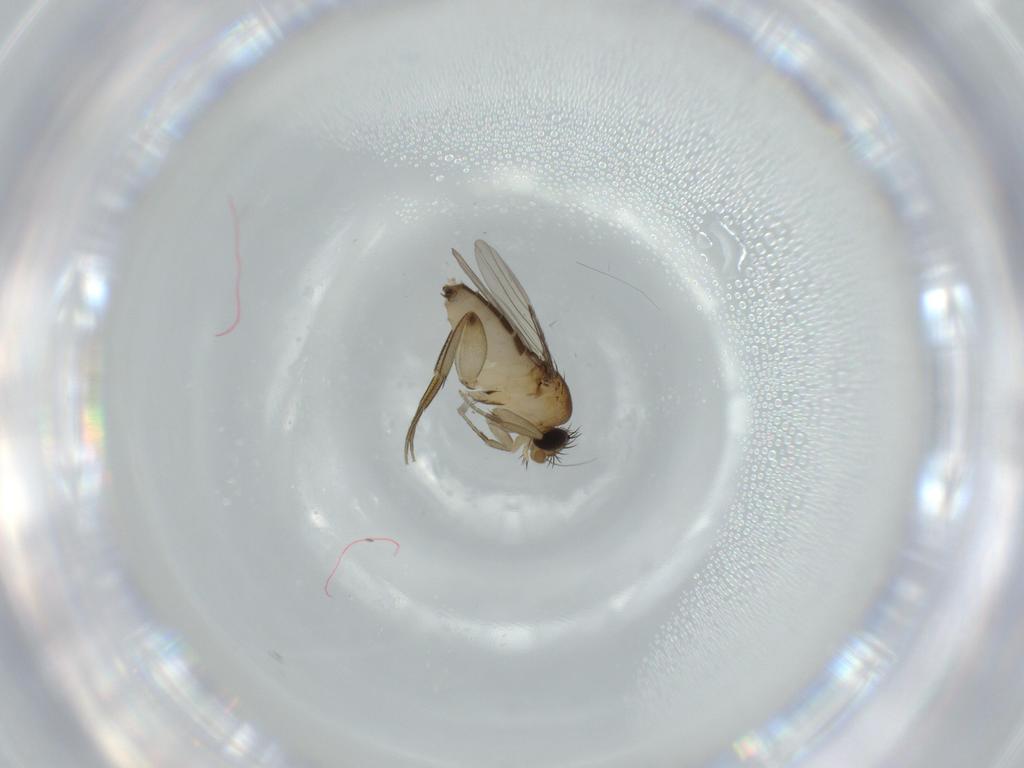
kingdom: Animalia
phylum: Arthropoda
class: Insecta
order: Diptera
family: Phoridae
